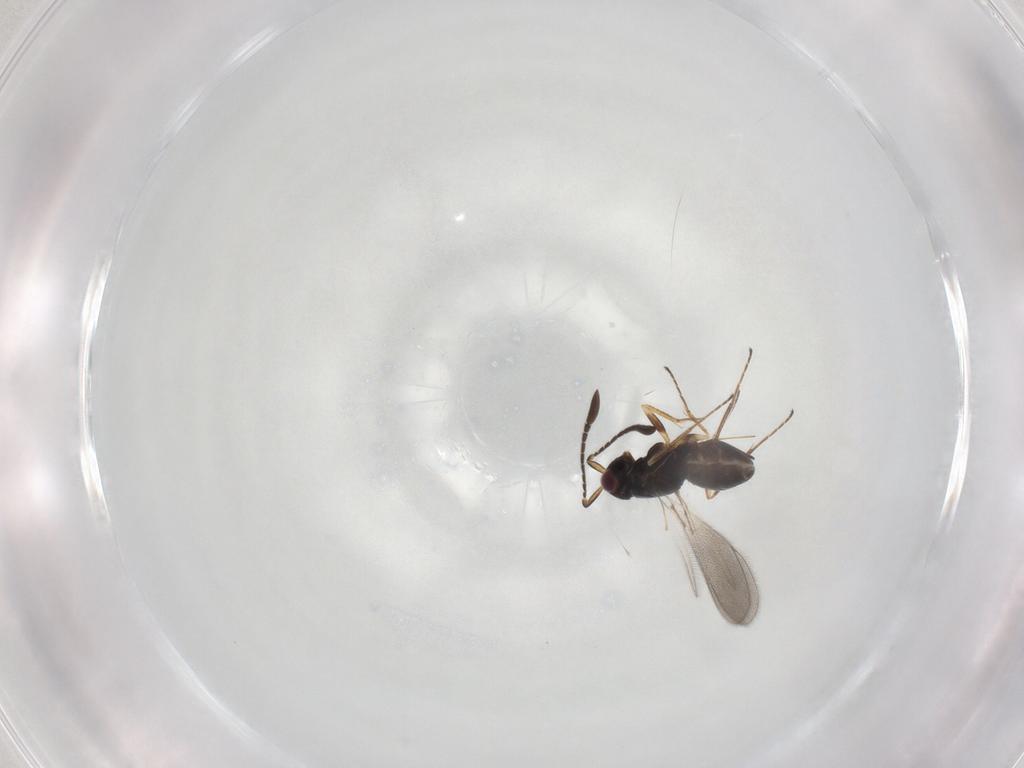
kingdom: Animalia
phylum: Arthropoda
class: Insecta
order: Hymenoptera
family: Mymaridae
